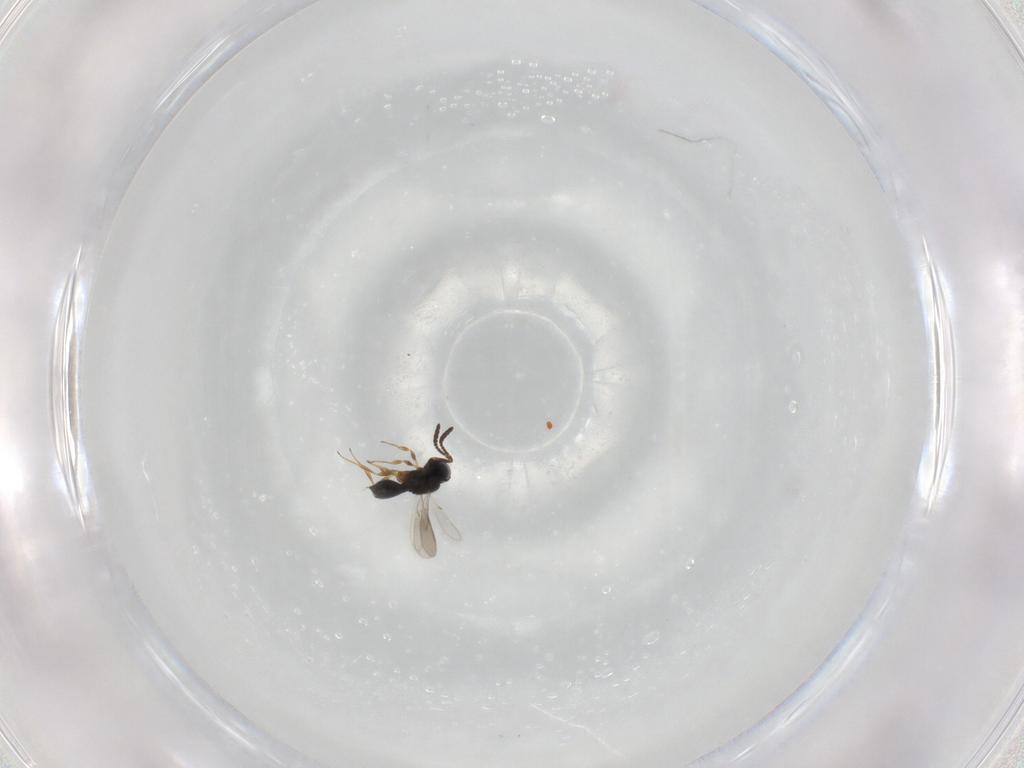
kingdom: Animalia
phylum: Arthropoda
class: Insecta
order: Hymenoptera
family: Scelionidae
